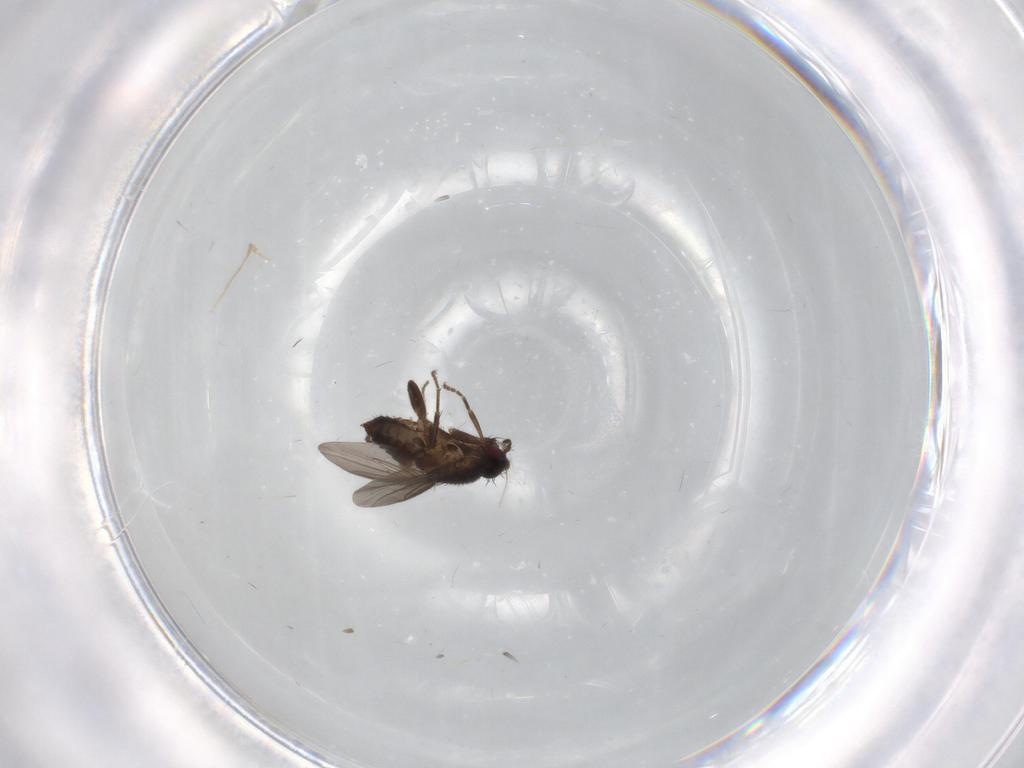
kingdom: Animalia
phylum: Arthropoda
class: Insecta
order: Diptera
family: Sphaeroceridae
